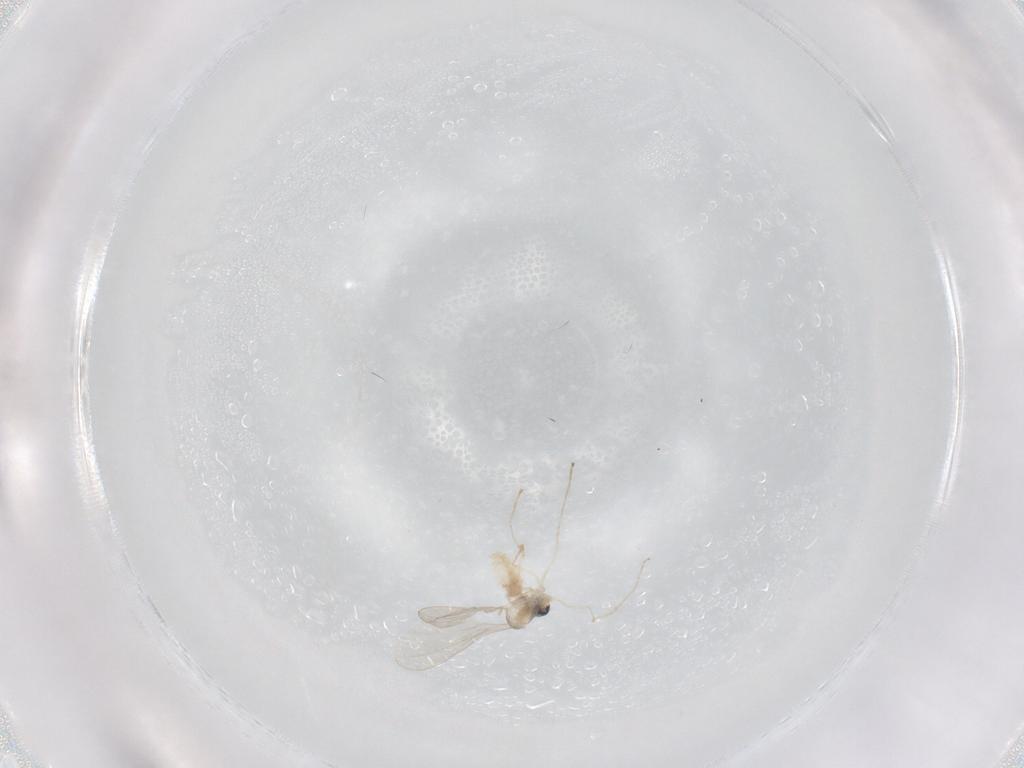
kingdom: Animalia
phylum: Arthropoda
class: Insecta
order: Diptera
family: Cecidomyiidae
